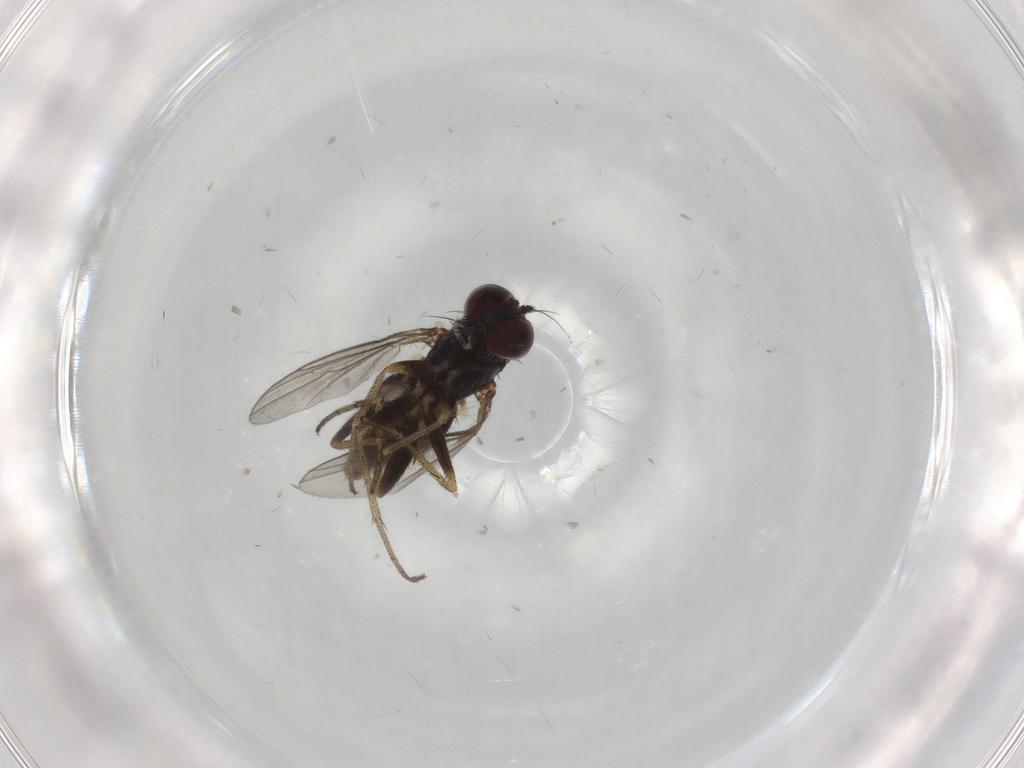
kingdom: Animalia
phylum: Arthropoda
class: Insecta
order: Diptera
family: Dolichopodidae
